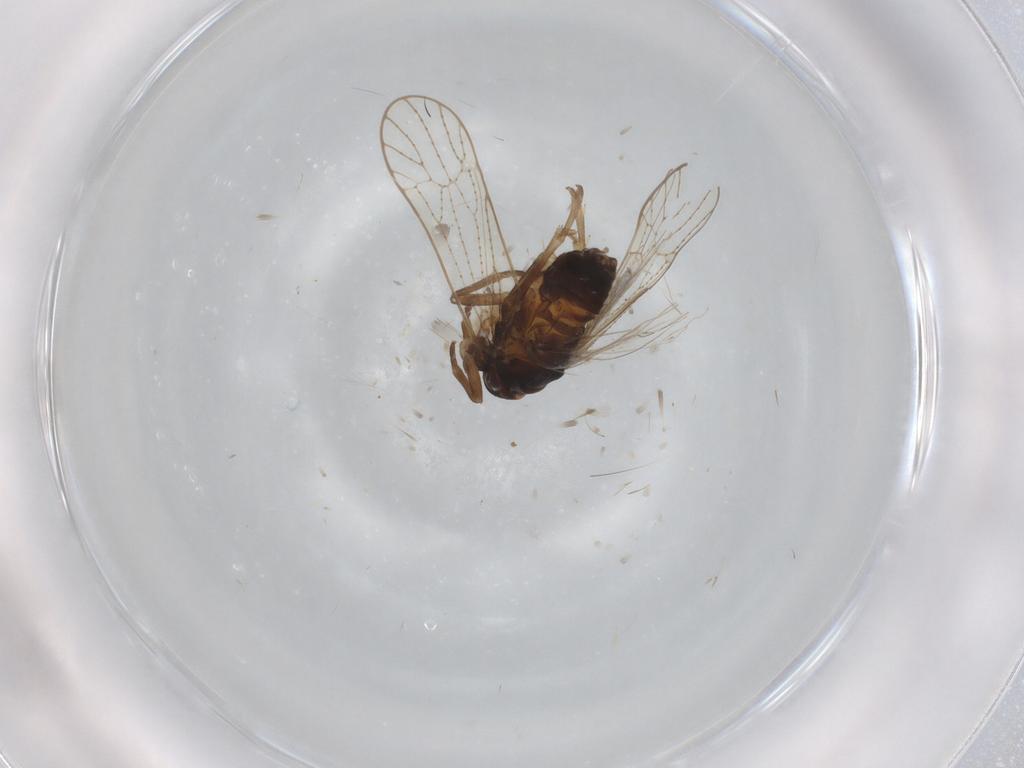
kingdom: Animalia
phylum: Arthropoda
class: Insecta
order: Hemiptera
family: Delphacidae
